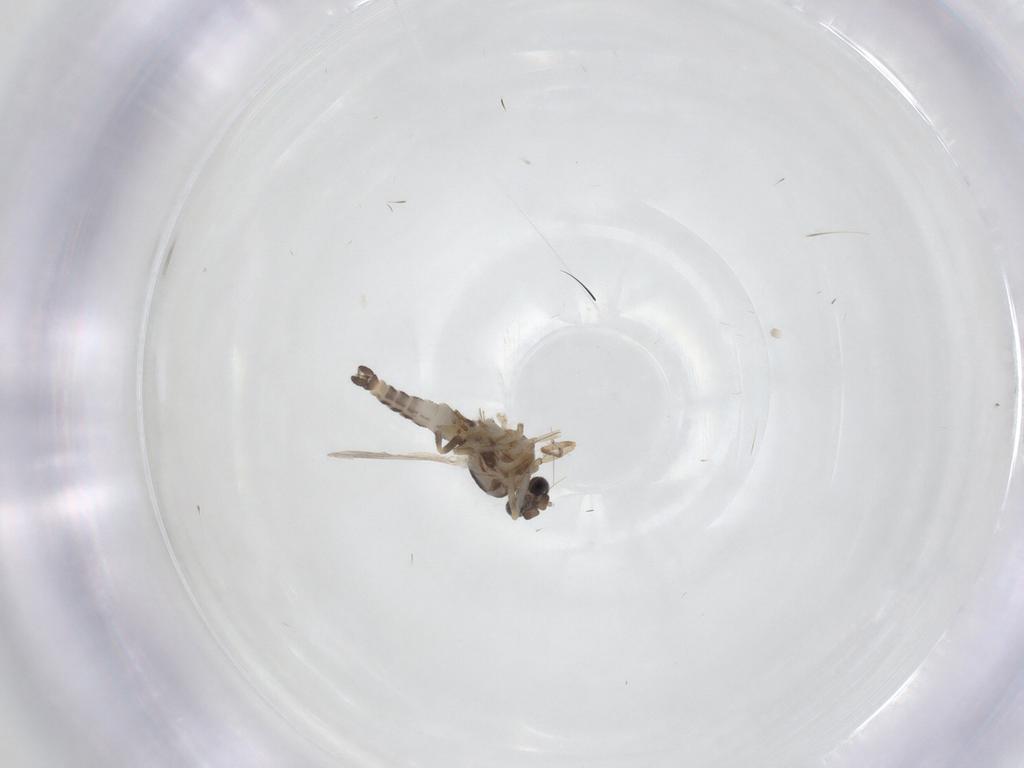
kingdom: Animalia
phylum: Arthropoda
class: Insecta
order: Diptera
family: Ceratopogonidae
